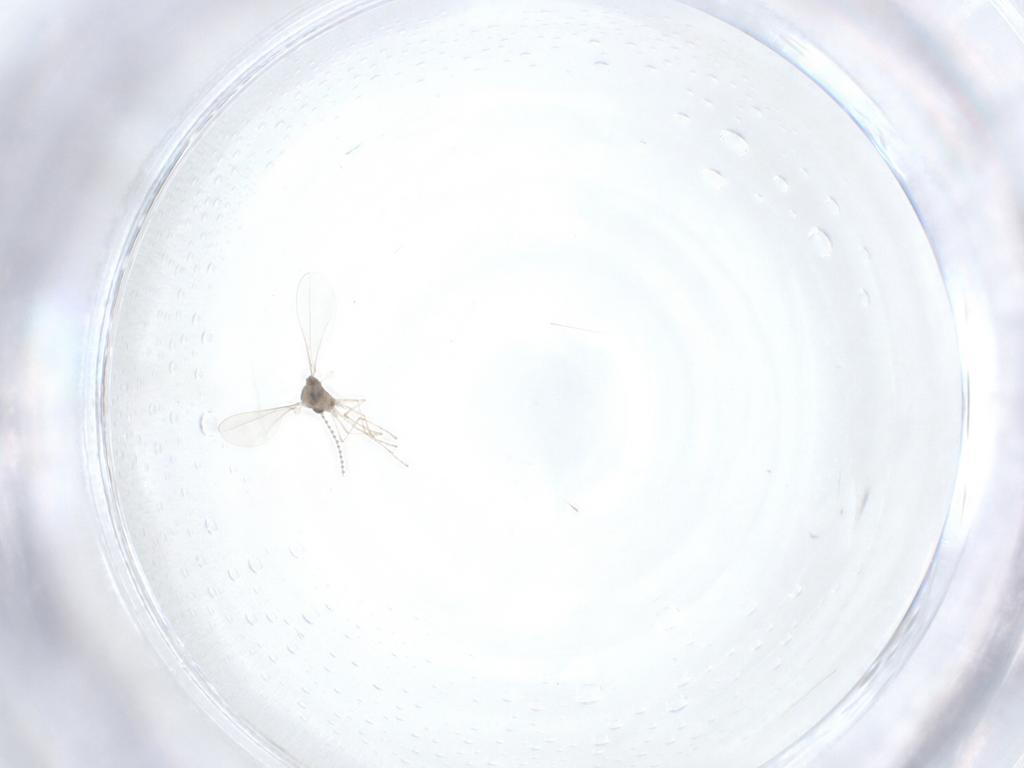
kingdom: Animalia
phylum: Arthropoda
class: Insecta
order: Diptera
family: Cecidomyiidae
